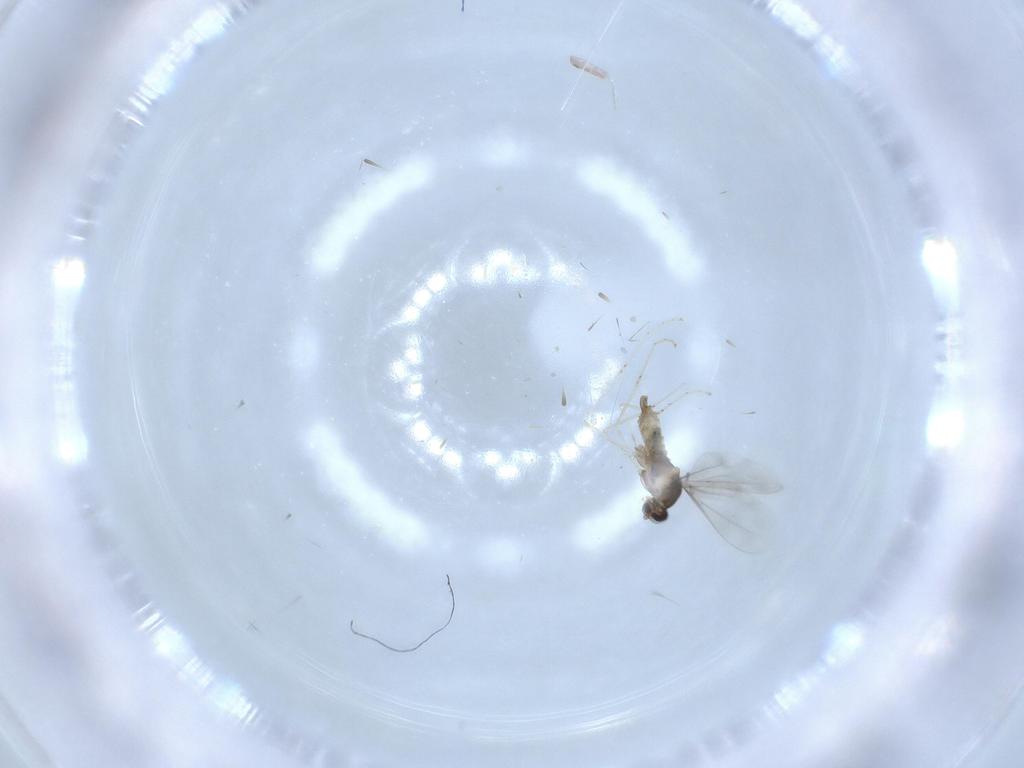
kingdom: Animalia
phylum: Arthropoda
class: Insecta
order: Diptera
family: Cecidomyiidae
